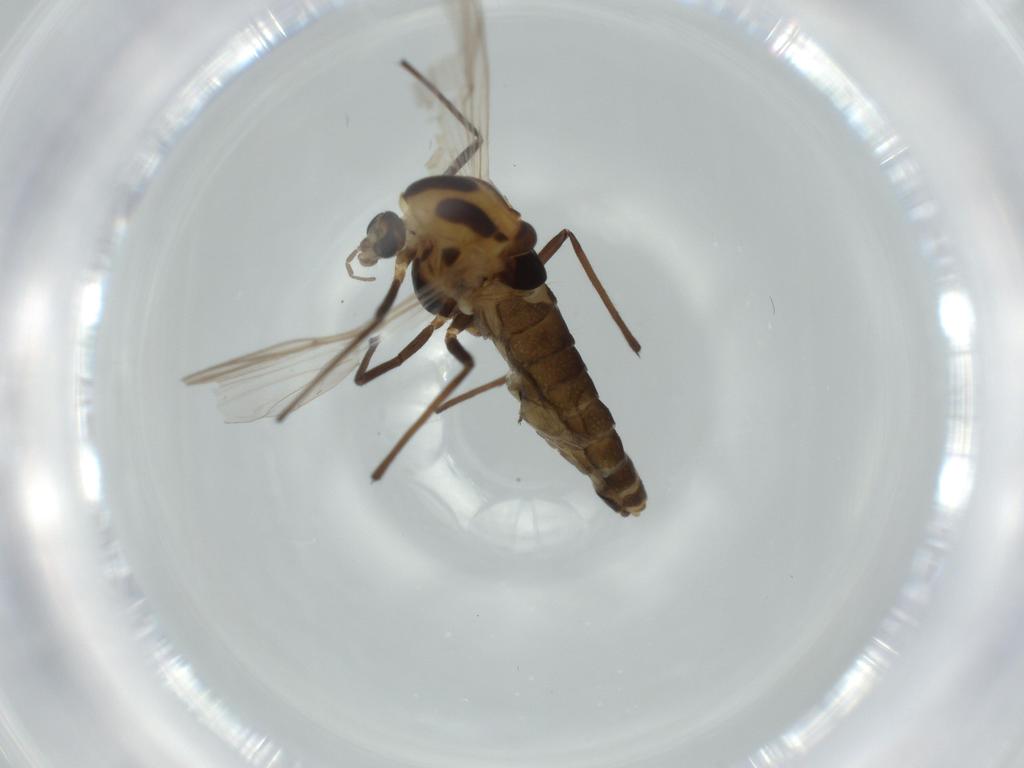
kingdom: Animalia
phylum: Arthropoda
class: Insecta
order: Diptera
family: Sphaeroceridae
